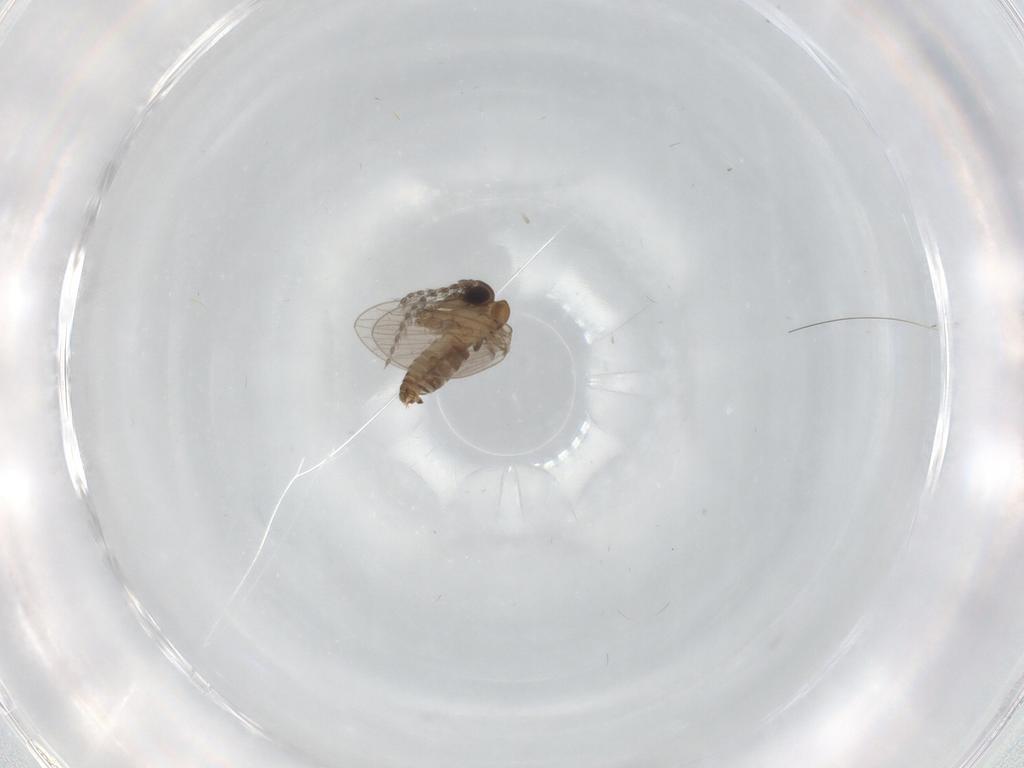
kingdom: Animalia
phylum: Arthropoda
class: Insecta
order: Diptera
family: Psychodidae
